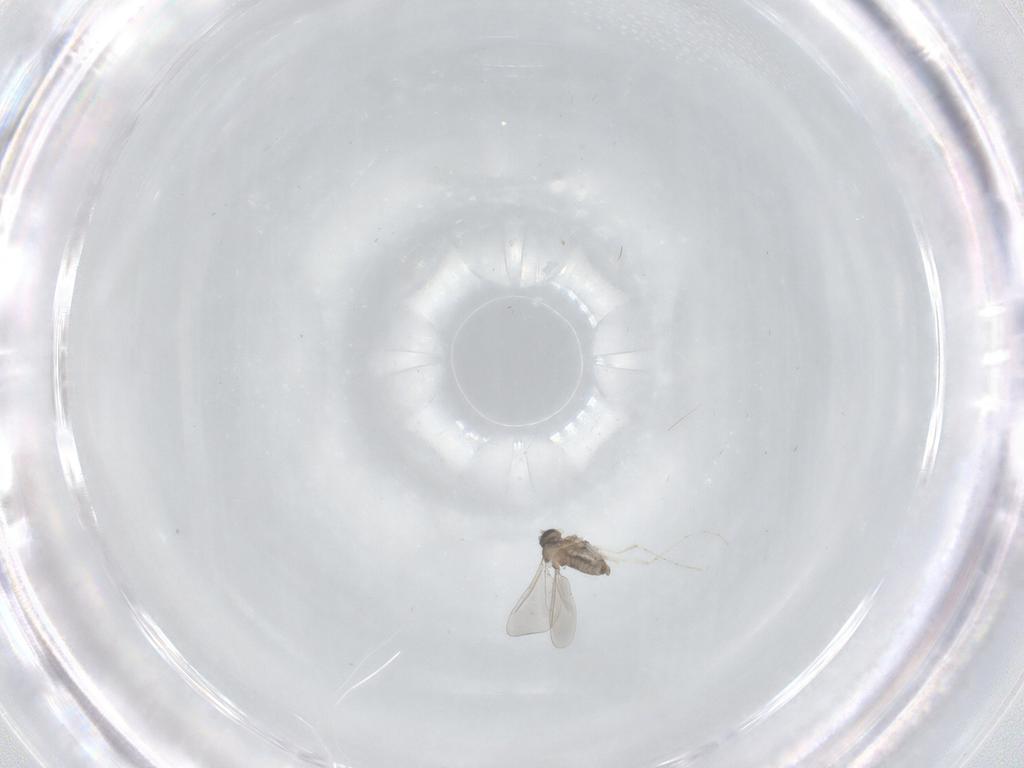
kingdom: Animalia
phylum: Arthropoda
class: Insecta
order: Diptera
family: Cecidomyiidae
